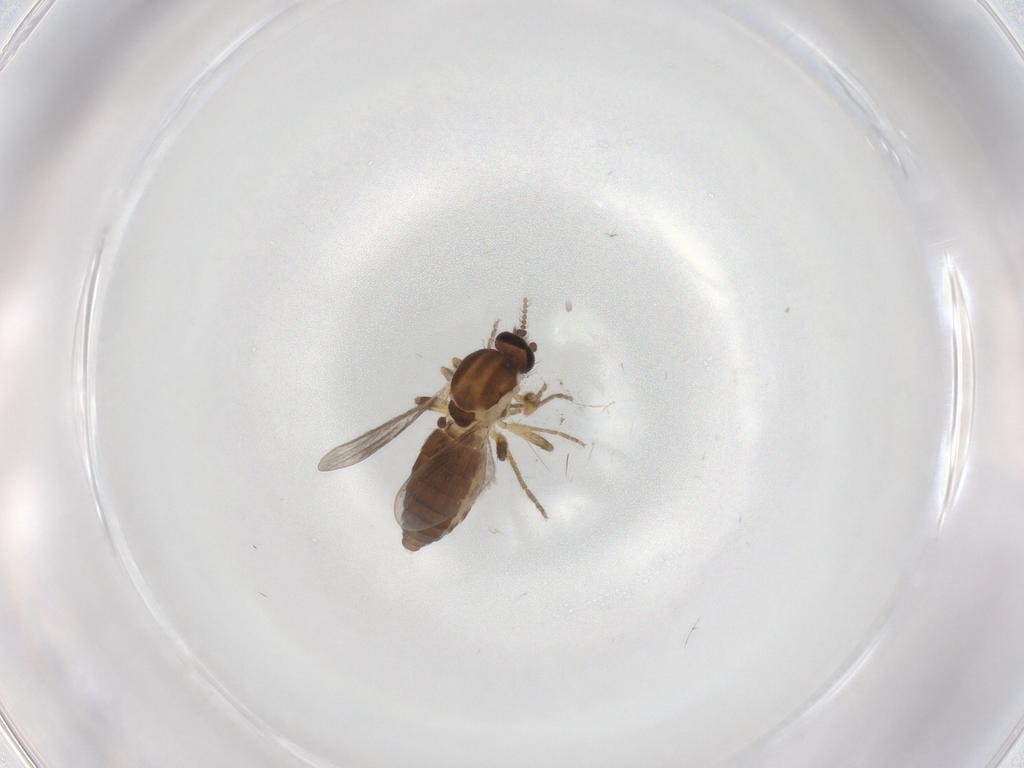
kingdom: Animalia
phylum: Arthropoda
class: Insecta
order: Diptera
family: Ceratopogonidae
